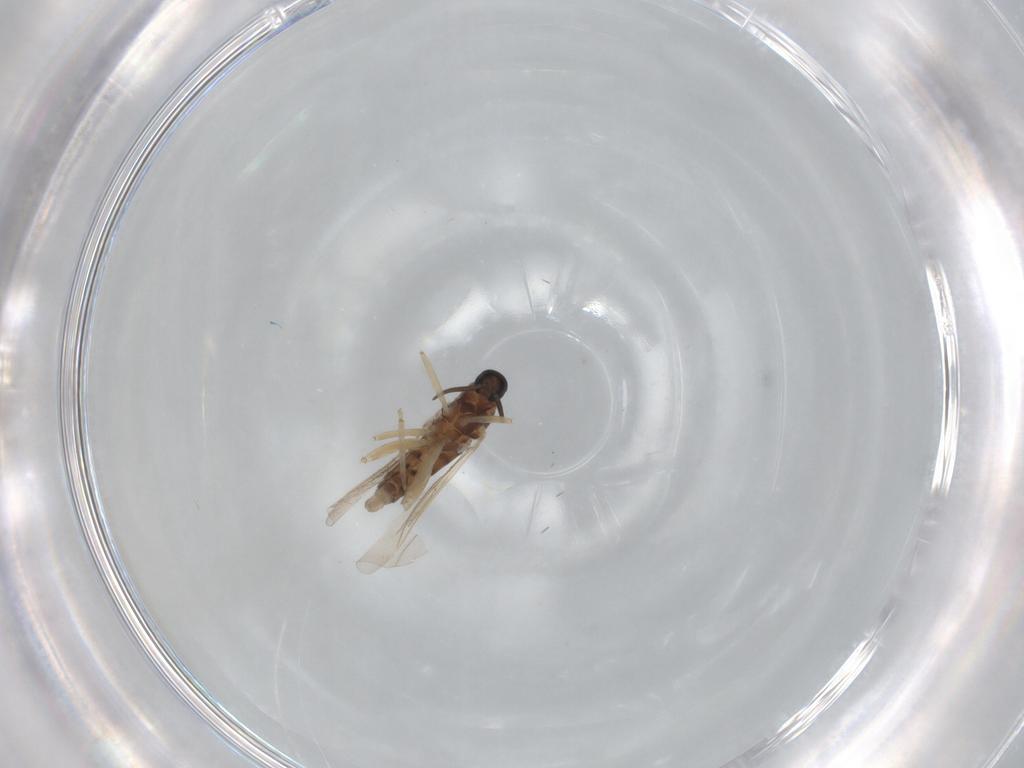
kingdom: Animalia
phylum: Arthropoda
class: Insecta
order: Diptera
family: Cecidomyiidae
